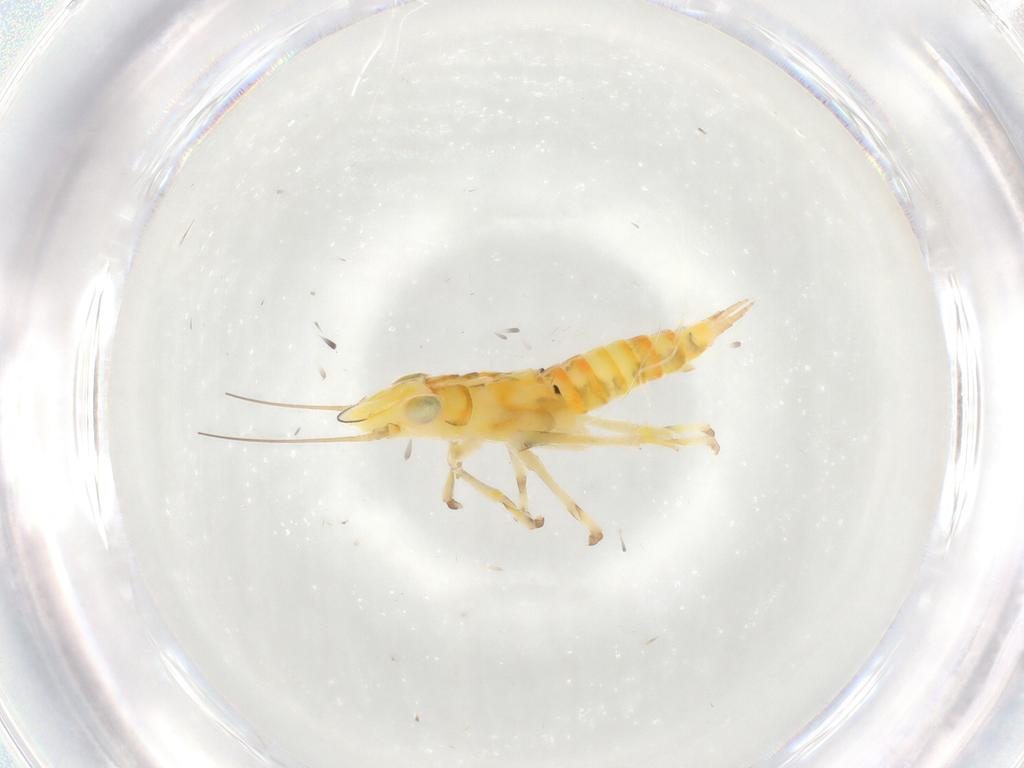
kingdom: Animalia
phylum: Arthropoda
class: Insecta
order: Hemiptera
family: Cicadellidae
